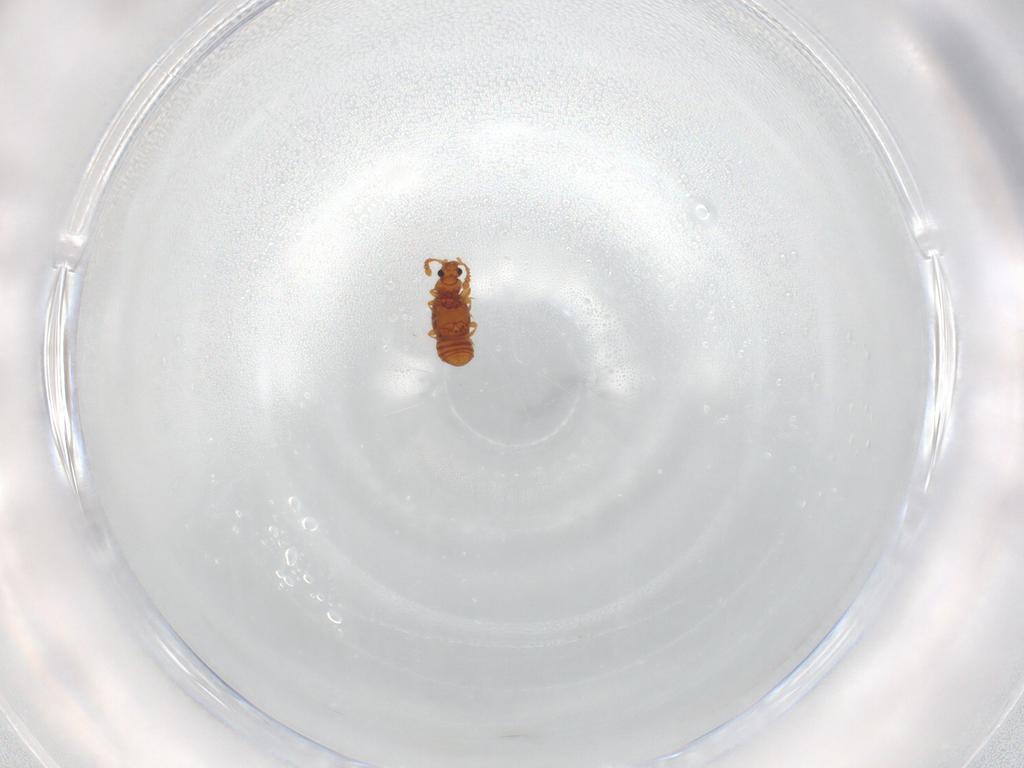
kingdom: Animalia
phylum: Arthropoda
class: Insecta
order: Coleoptera
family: Staphylinidae
